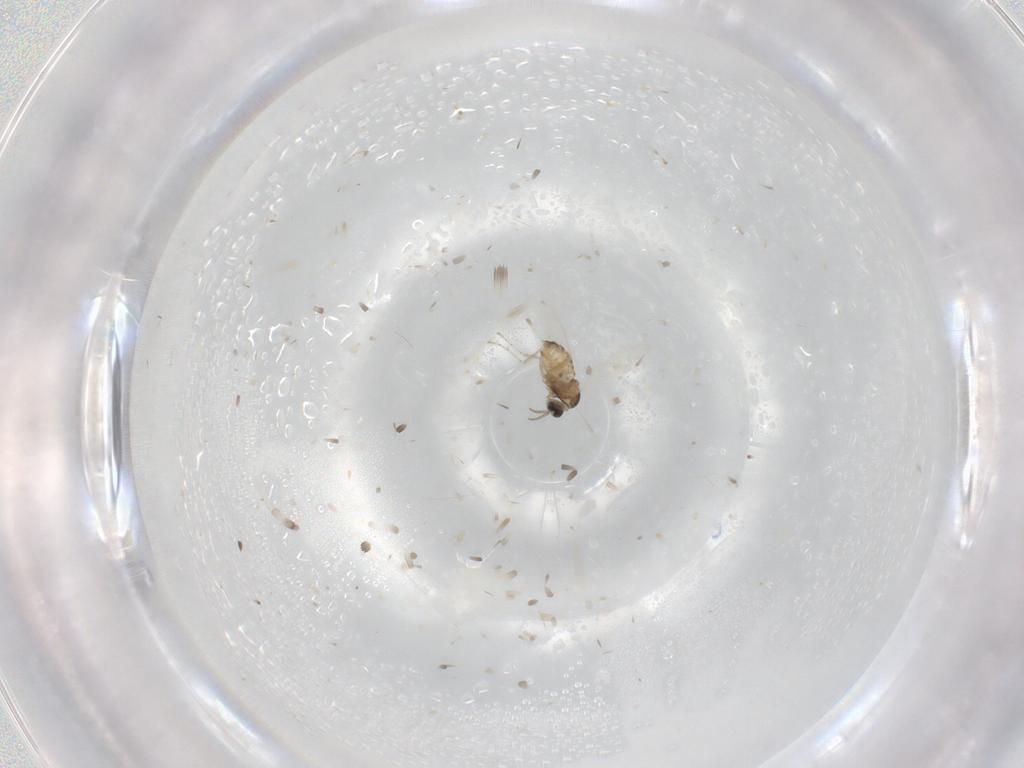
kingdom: Animalia
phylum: Arthropoda
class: Insecta
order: Diptera
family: Cecidomyiidae
